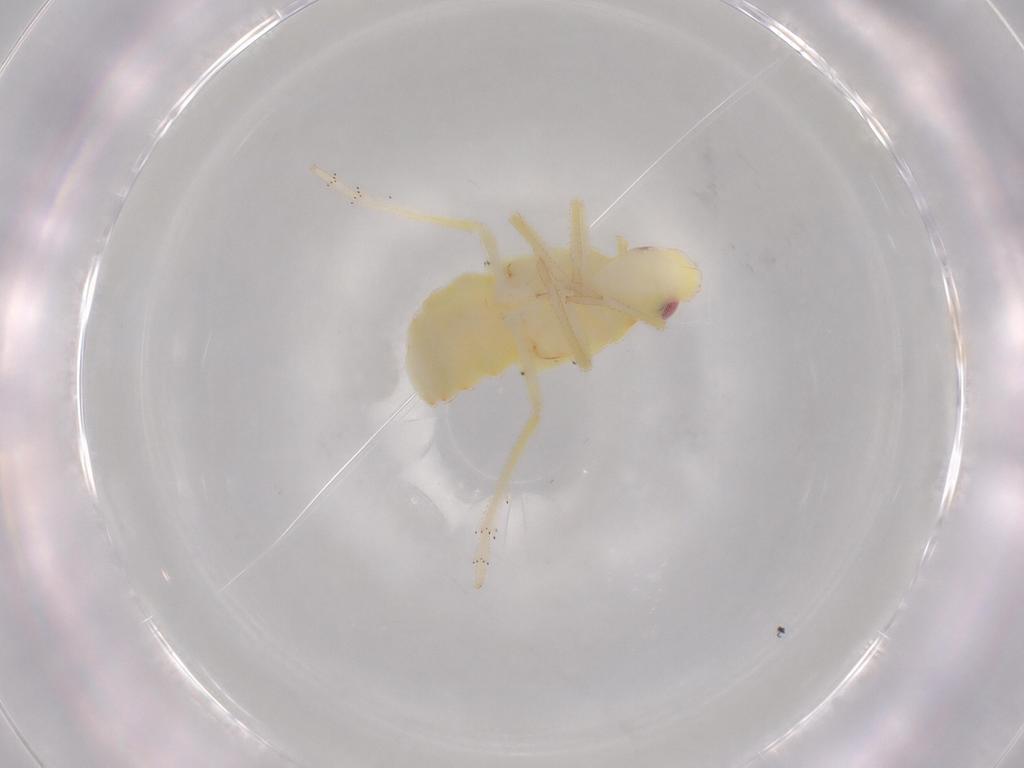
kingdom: Animalia
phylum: Arthropoda
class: Insecta
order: Hemiptera
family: Tropiduchidae
